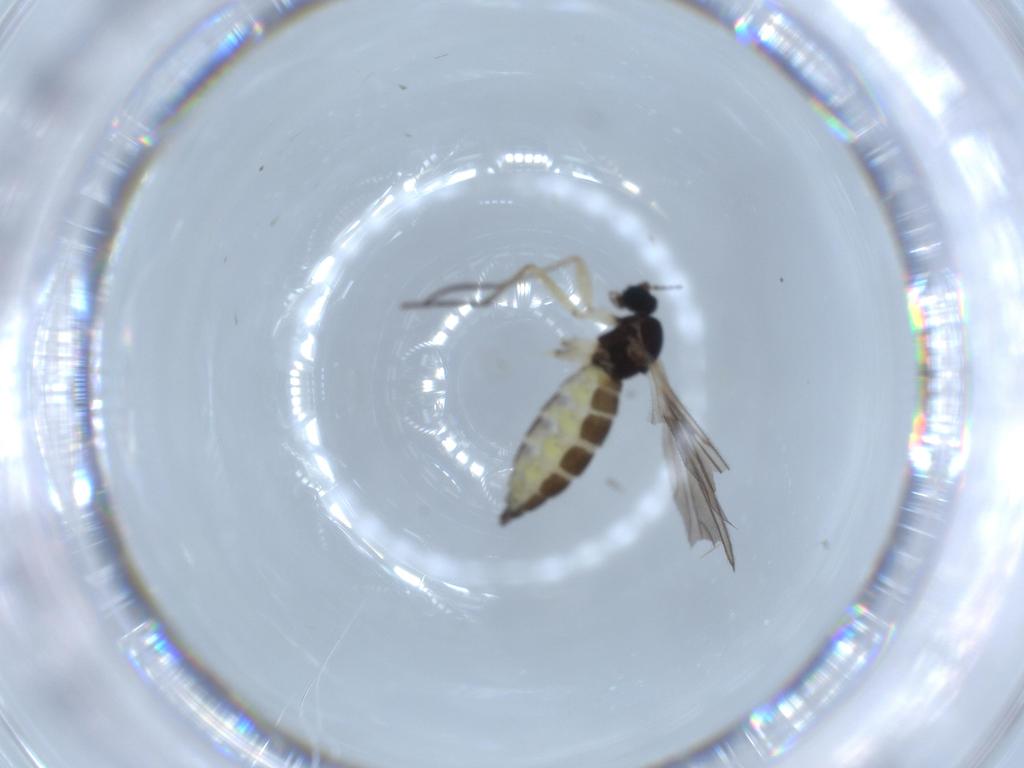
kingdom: Animalia
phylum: Arthropoda
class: Insecta
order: Diptera
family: Sciaridae
